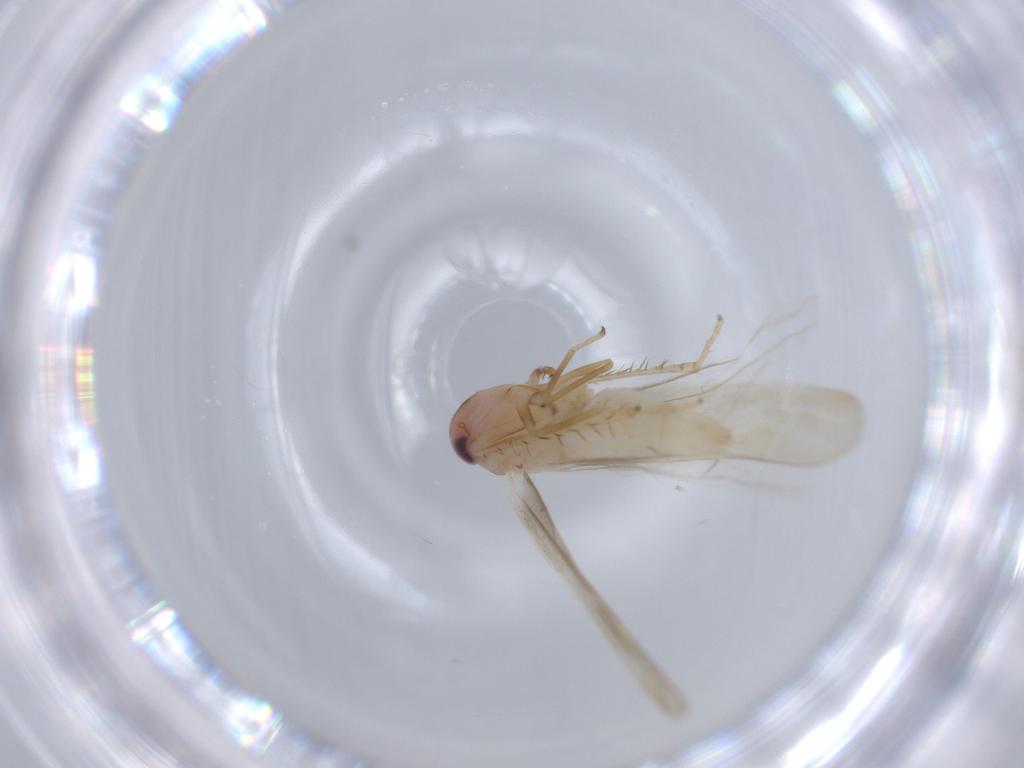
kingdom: Animalia
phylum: Arthropoda
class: Insecta
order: Hemiptera
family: Cicadellidae
